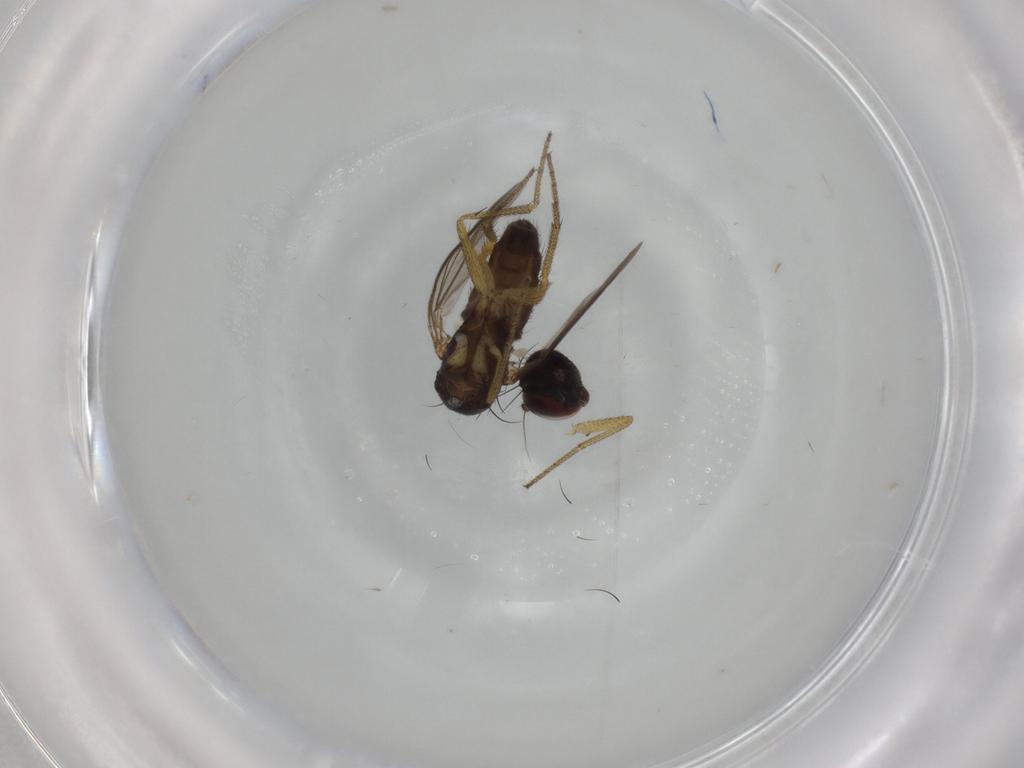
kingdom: Animalia
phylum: Arthropoda
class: Insecta
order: Diptera
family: Dolichopodidae
